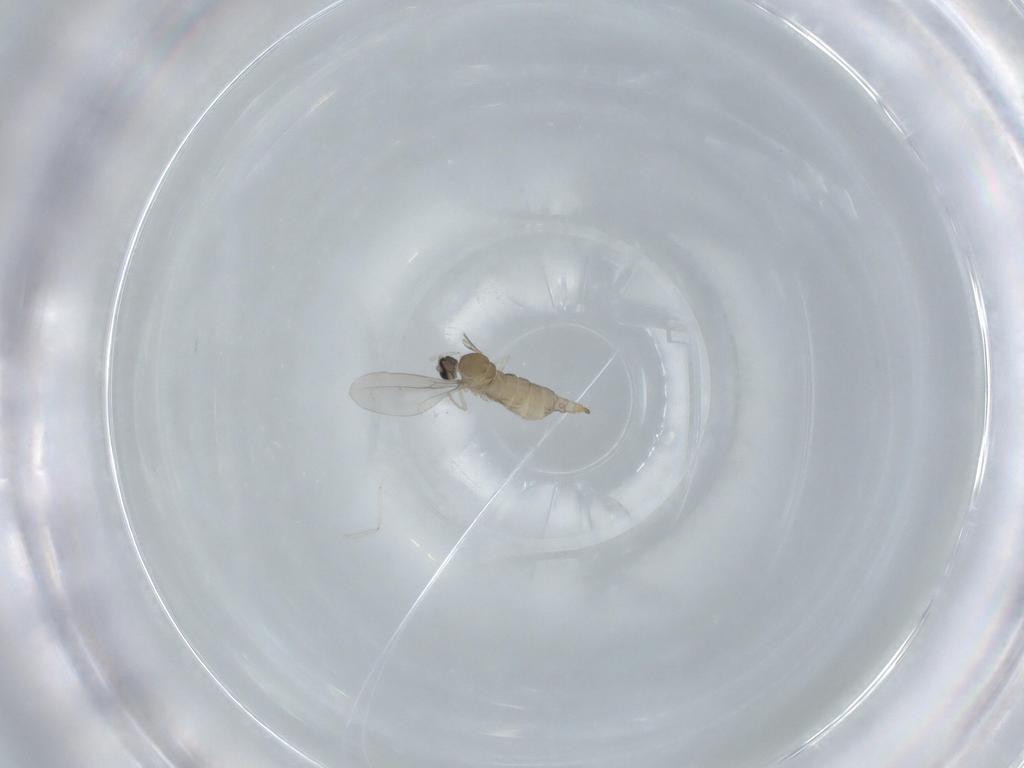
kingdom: Animalia
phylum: Arthropoda
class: Insecta
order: Diptera
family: Cecidomyiidae
